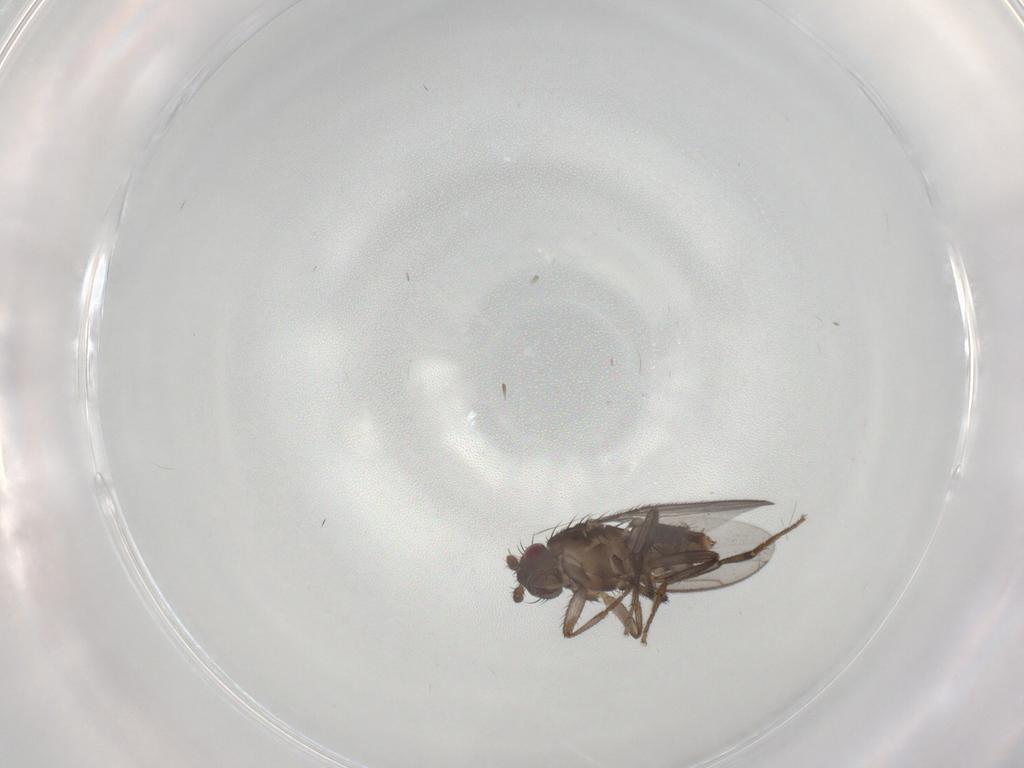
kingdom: Animalia
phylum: Arthropoda
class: Insecta
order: Diptera
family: Sphaeroceridae
